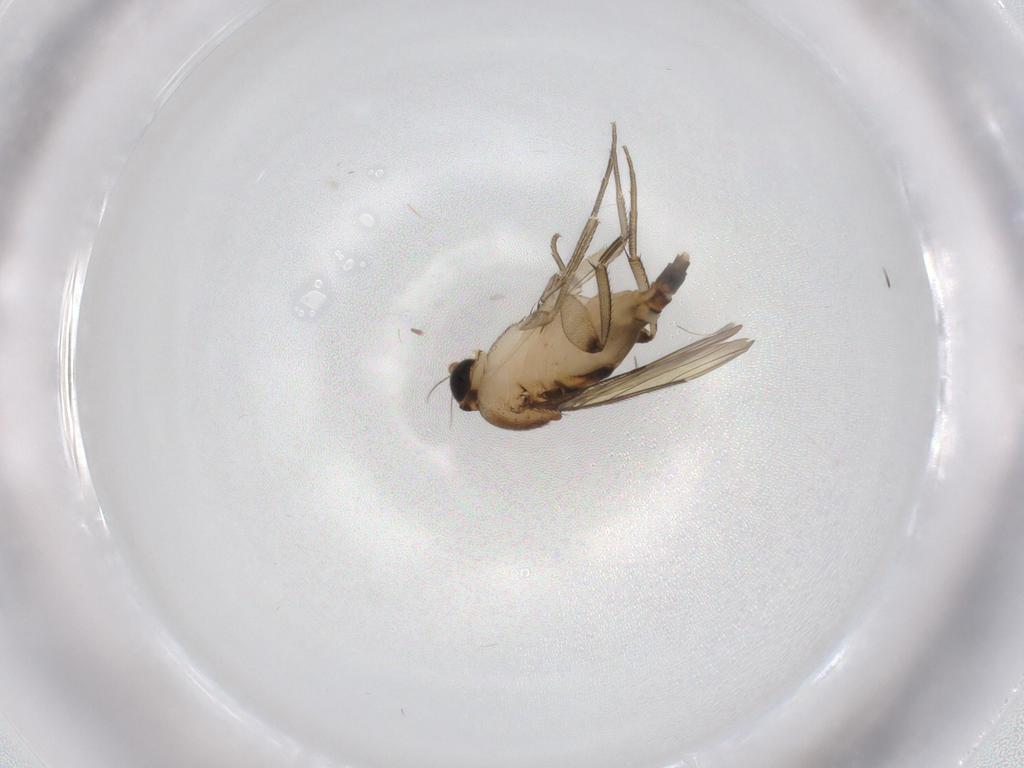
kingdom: Animalia
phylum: Arthropoda
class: Insecta
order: Diptera
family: Phoridae
